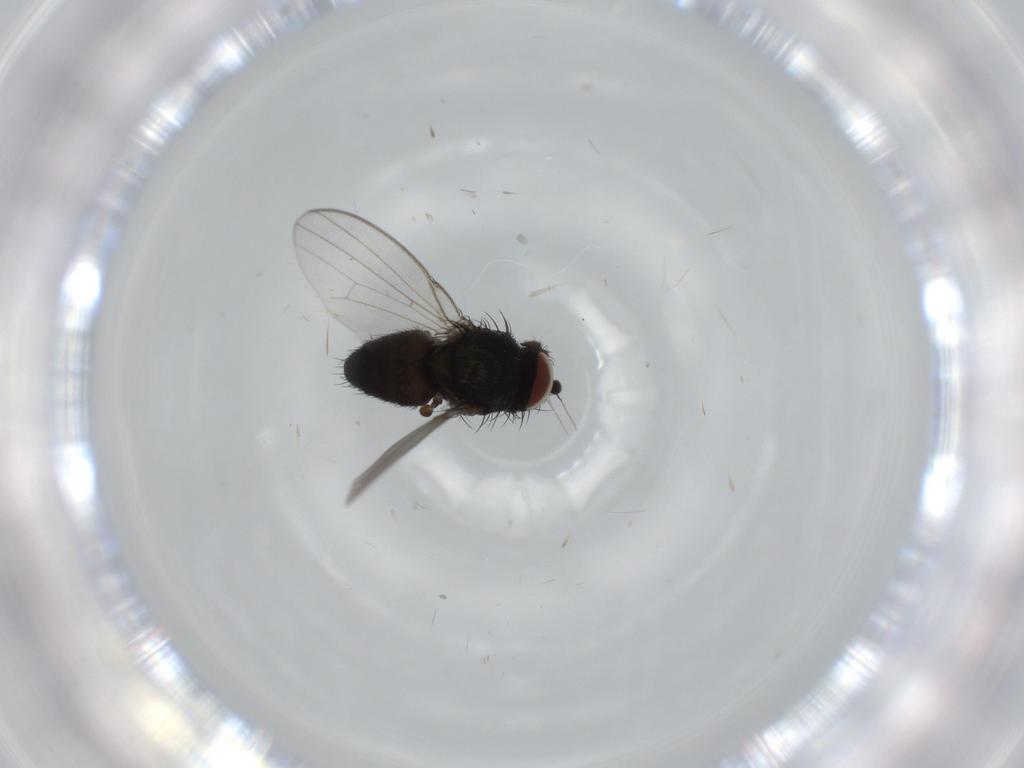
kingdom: Animalia
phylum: Arthropoda
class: Insecta
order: Diptera
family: Milichiidae
